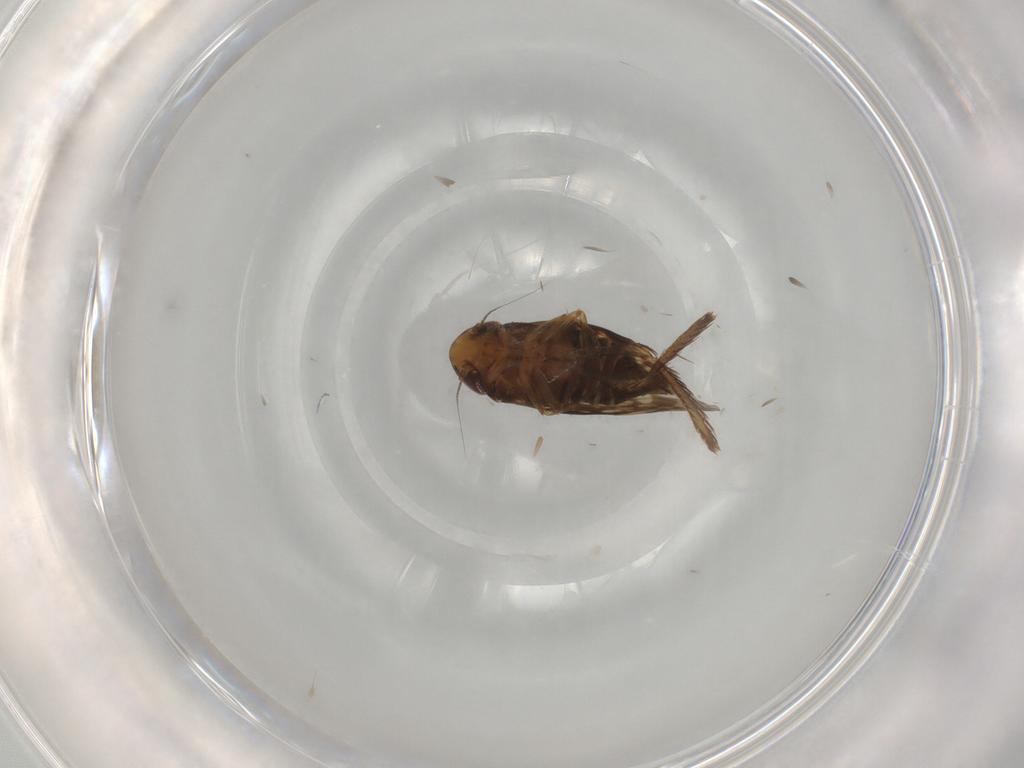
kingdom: Animalia
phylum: Arthropoda
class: Insecta
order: Hemiptera
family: Cicadellidae
